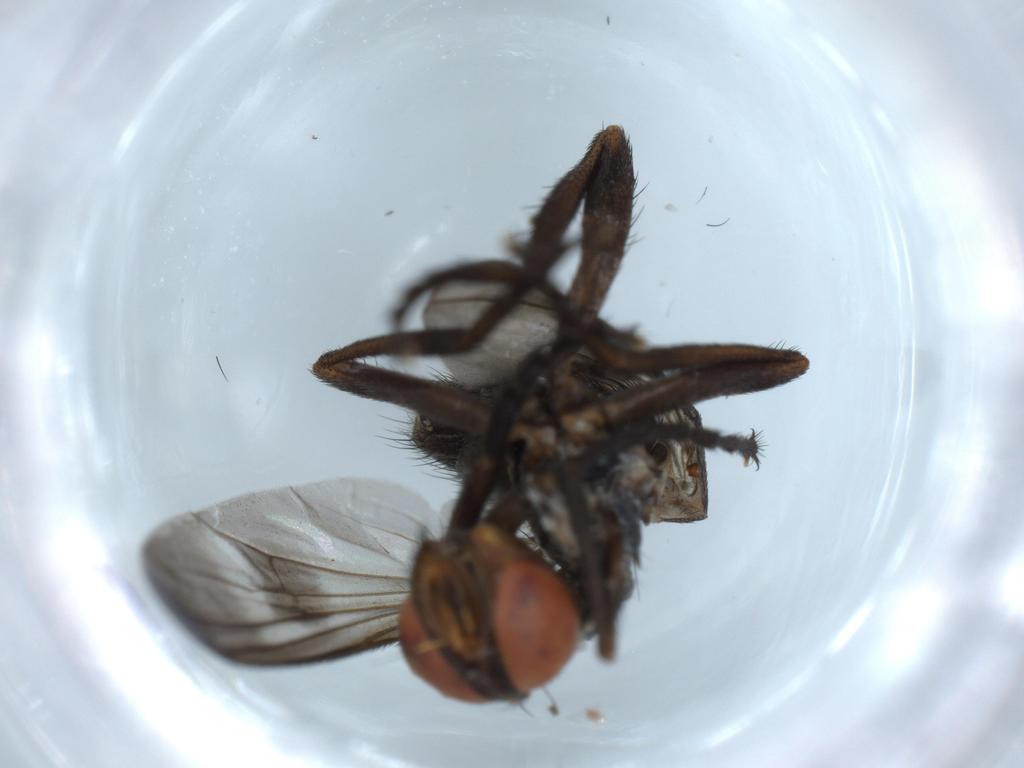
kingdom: Animalia
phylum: Arthropoda
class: Insecta
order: Diptera
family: Calliphoridae
